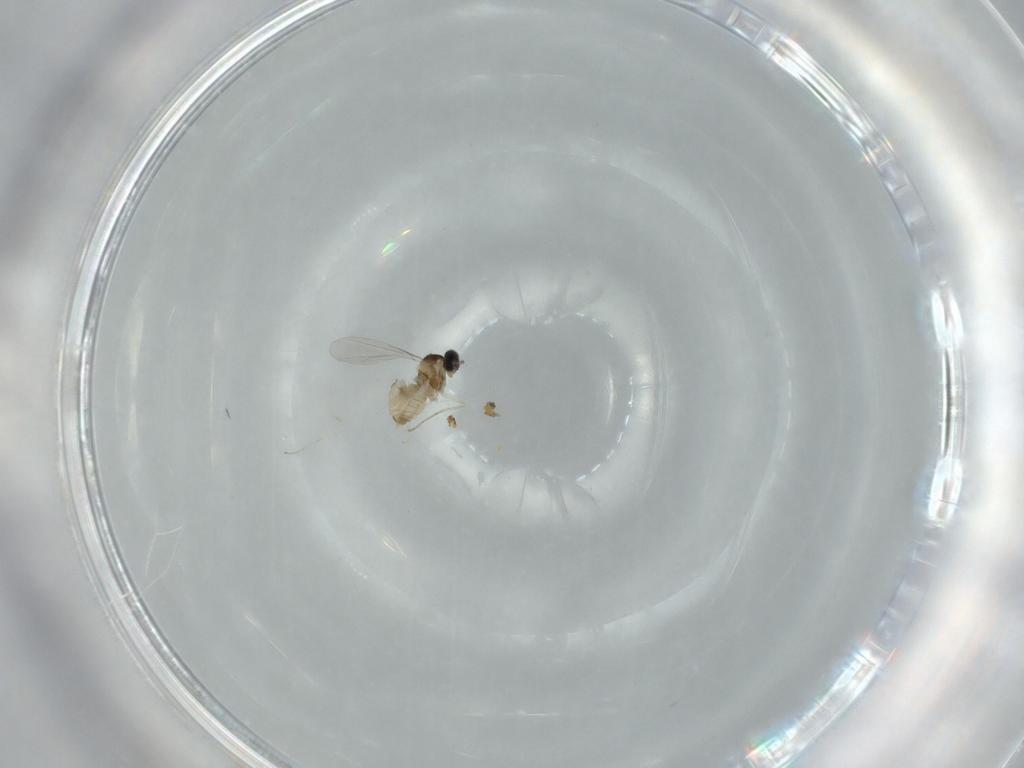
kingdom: Animalia
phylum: Arthropoda
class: Insecta
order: Diptera
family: Cecidomyiidae
